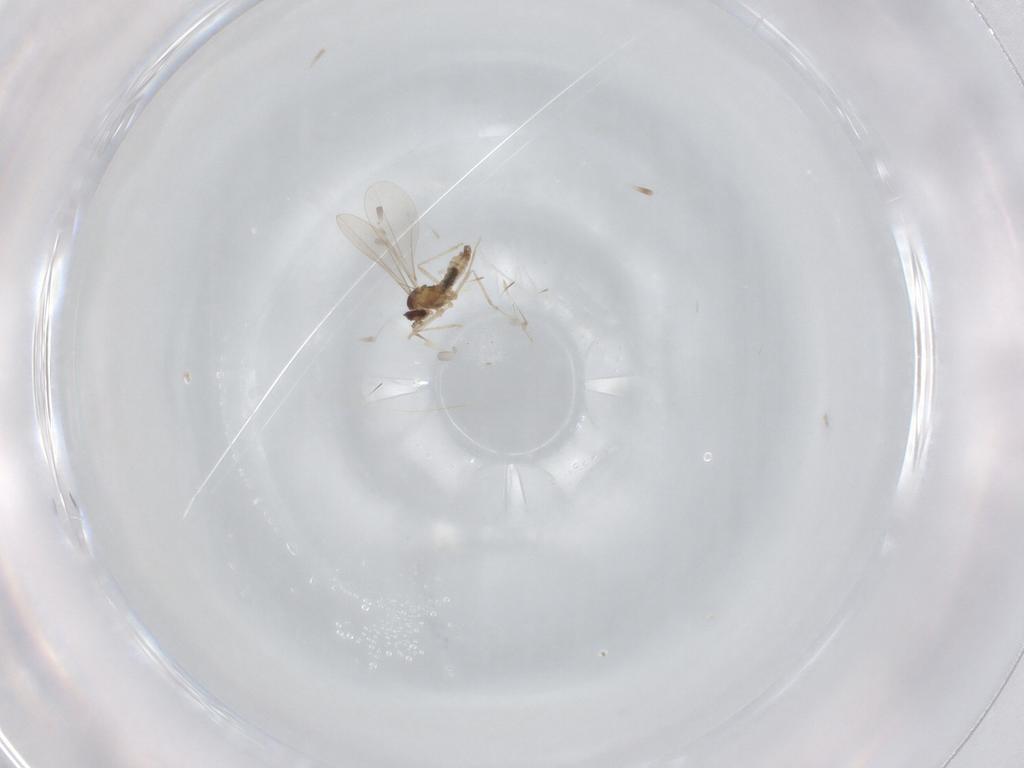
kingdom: Animalia
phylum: Arthropoda
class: Insecta
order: Diptera
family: Cecidomyiidae
